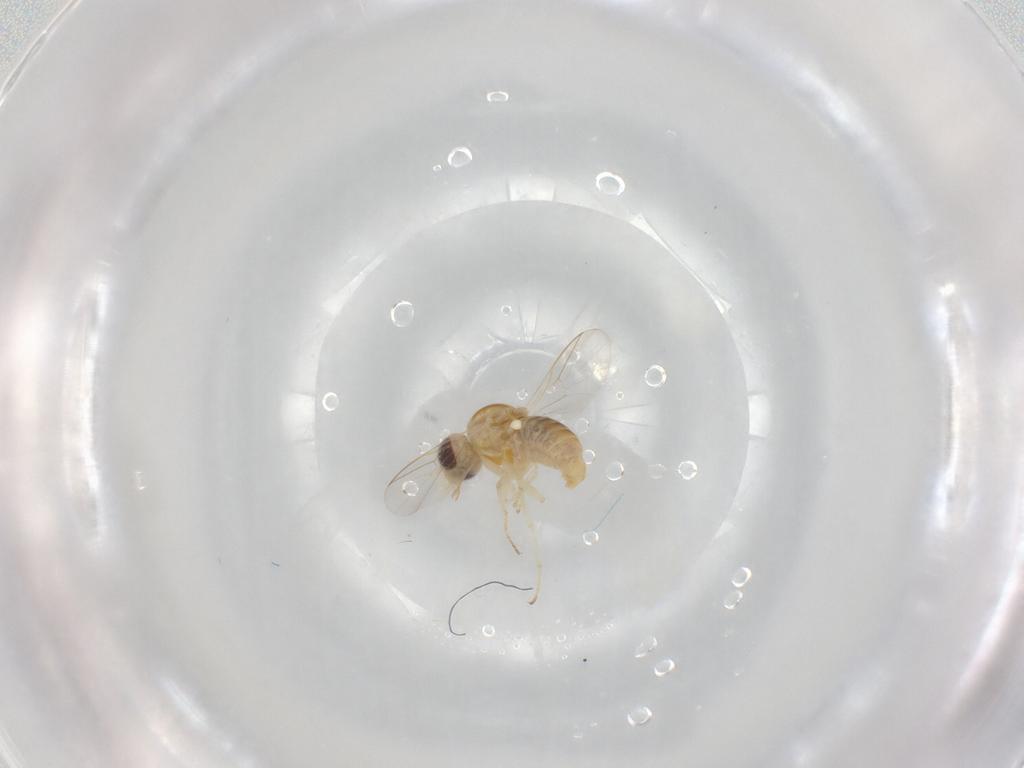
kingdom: Animalia
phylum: Arthropoda
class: Insecta
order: Diptera
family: Bombyliidae
